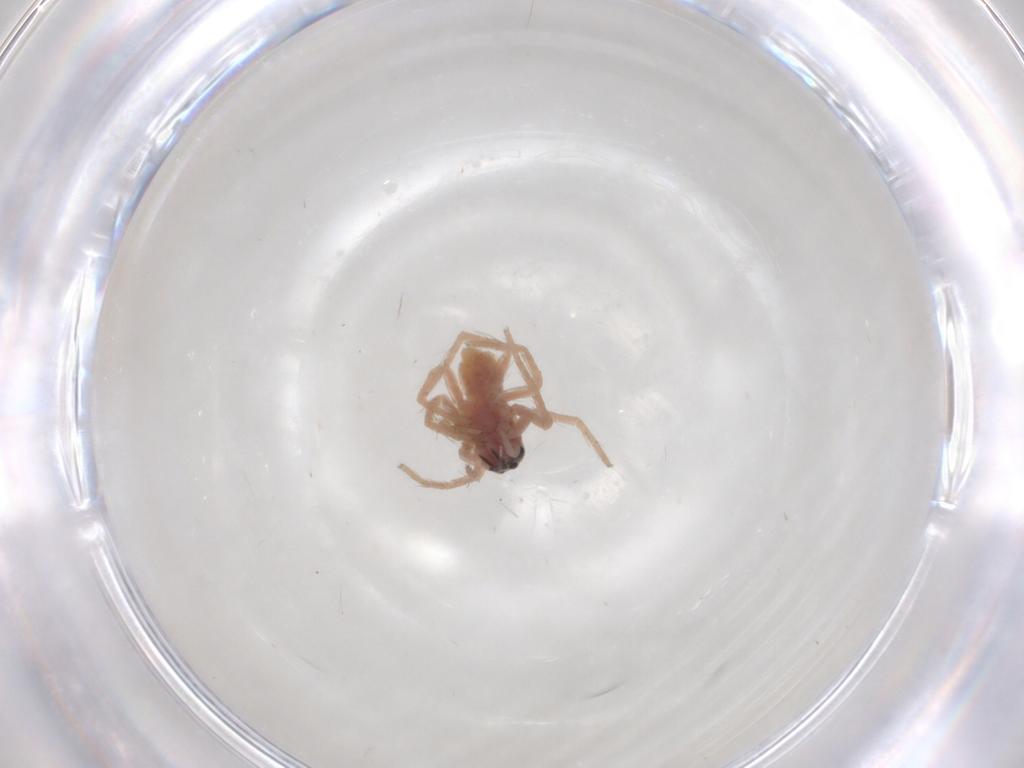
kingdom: Animalia
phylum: Arthropoda
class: Arachnida
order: Araneae
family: Oxyopidae
